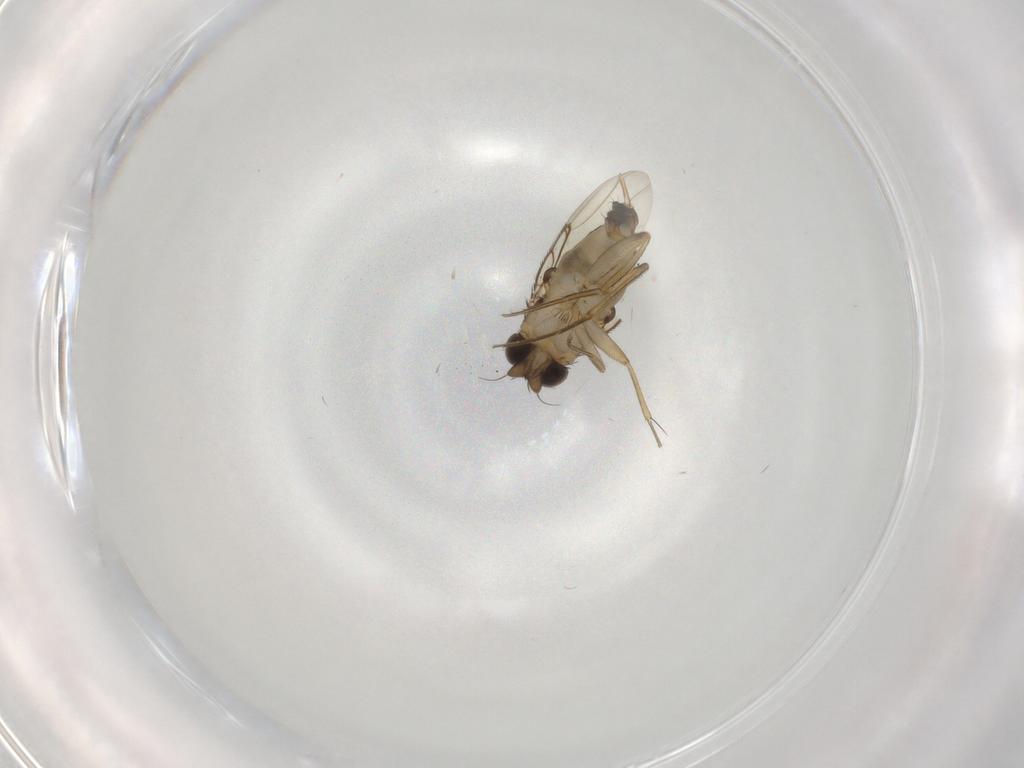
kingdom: Animalia
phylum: Arthropoda
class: Insecta
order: Diptera
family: Phoridae
